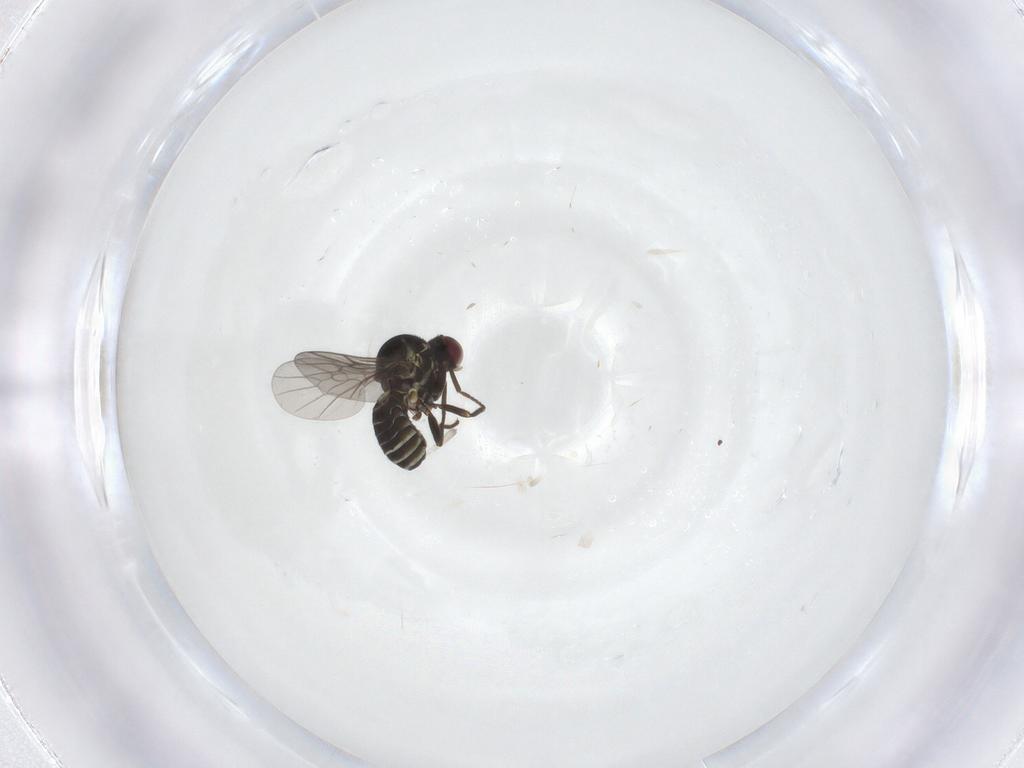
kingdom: Animalia
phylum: Arthropoda
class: Insecta
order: Diptera
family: Mythicomyiidae
